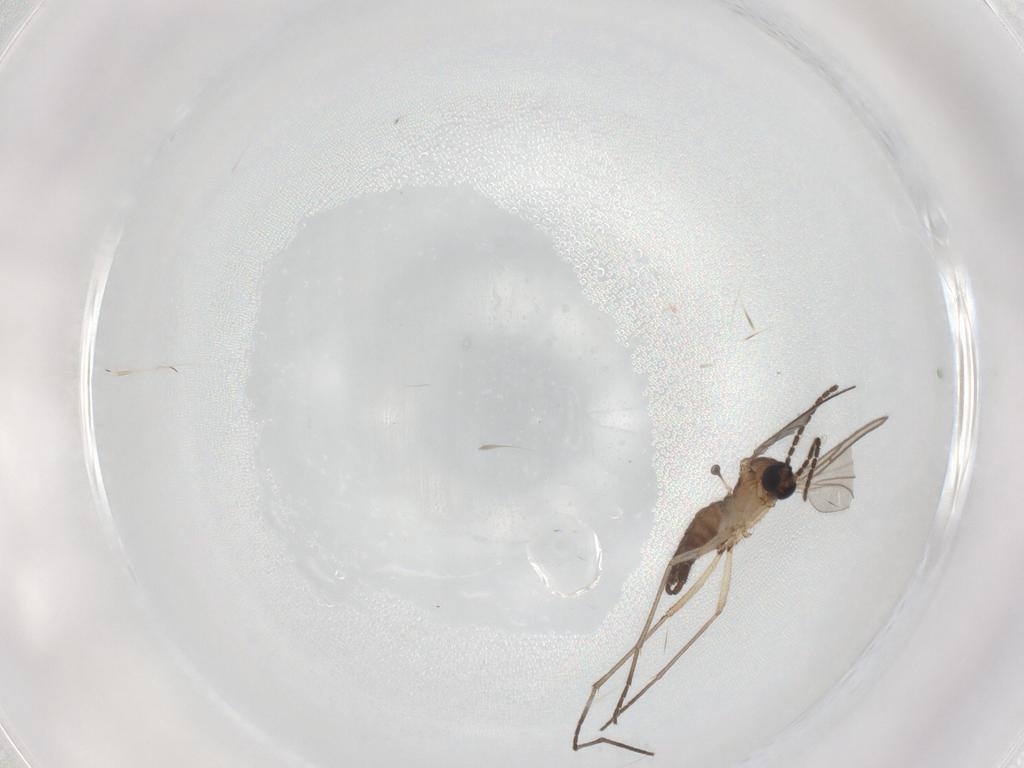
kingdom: Animalia
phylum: Arthropoda
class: Insecta
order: Diptera
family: Sciaridae
